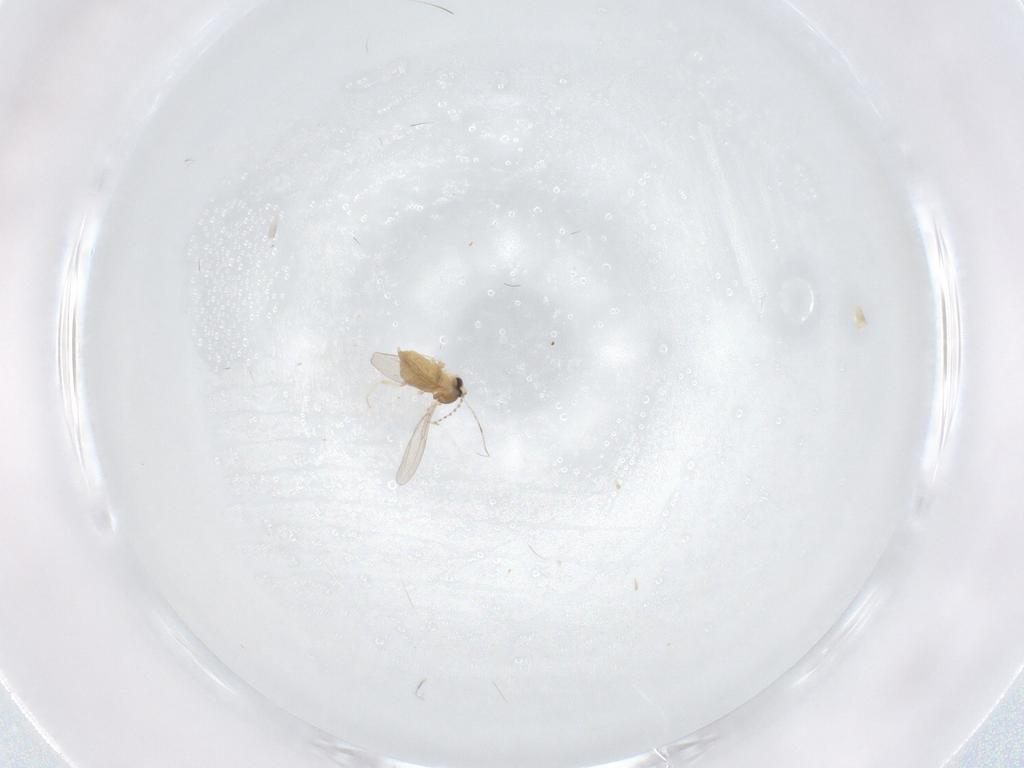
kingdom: Animalia
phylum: Arthropoda
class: Insecta
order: Diptera
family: Cecidomyiidae
